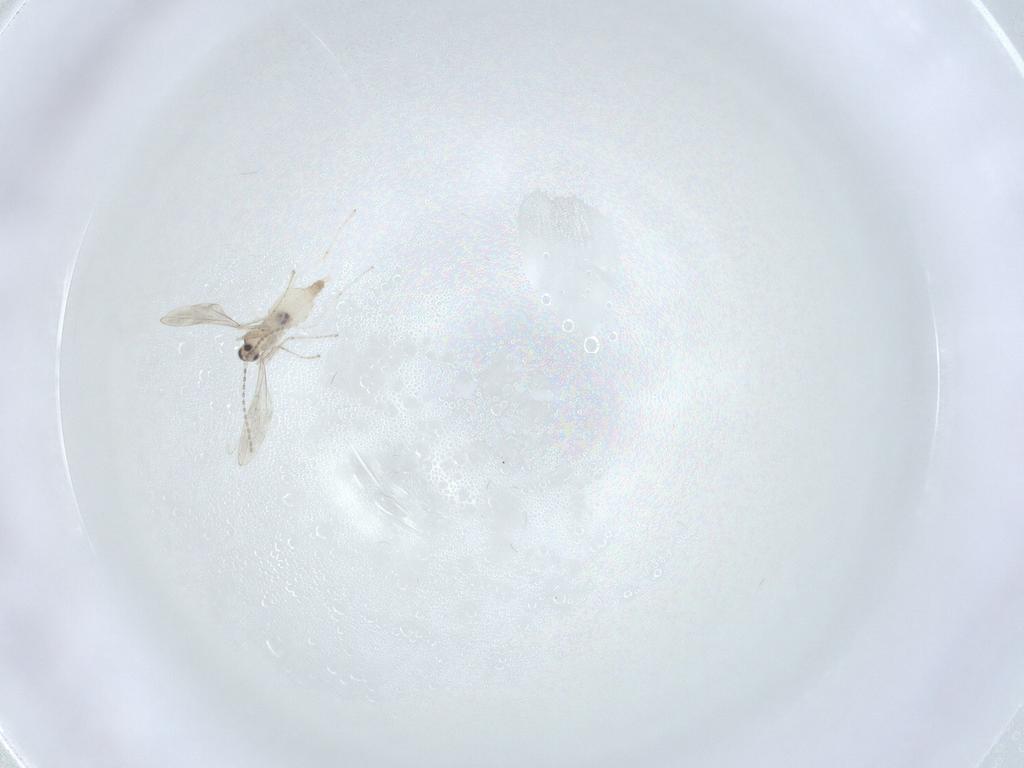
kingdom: Animalia
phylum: Arthropoda
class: Insecta
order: Diptera
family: Cecidomyiidae
